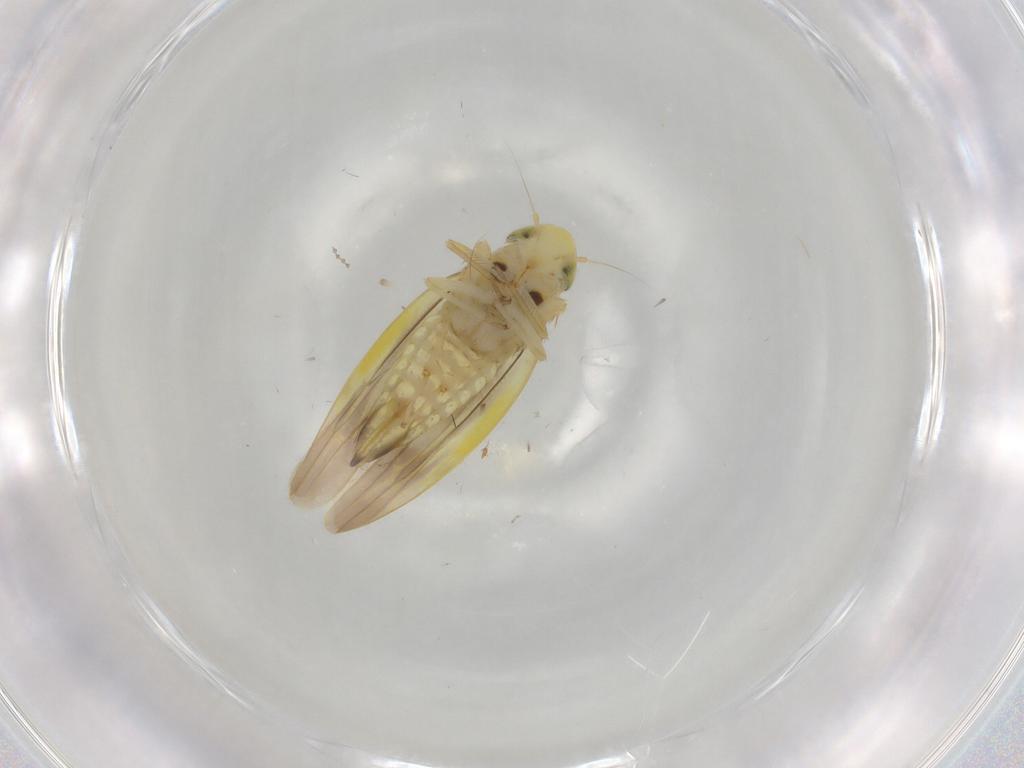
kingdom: Animalia
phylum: Arthropoda
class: Insecta
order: Hemiptera
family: Cicadellidae
